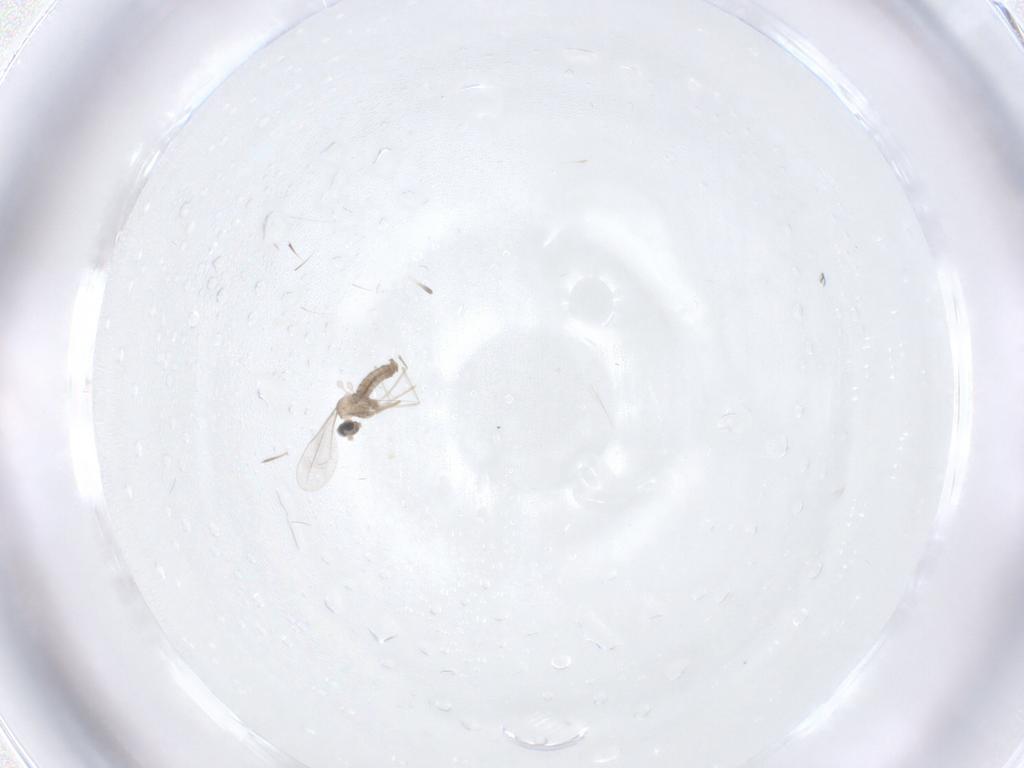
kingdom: Animalia
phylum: Arthropoda
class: Insecta
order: Diptera
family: Cecidomyiidae
